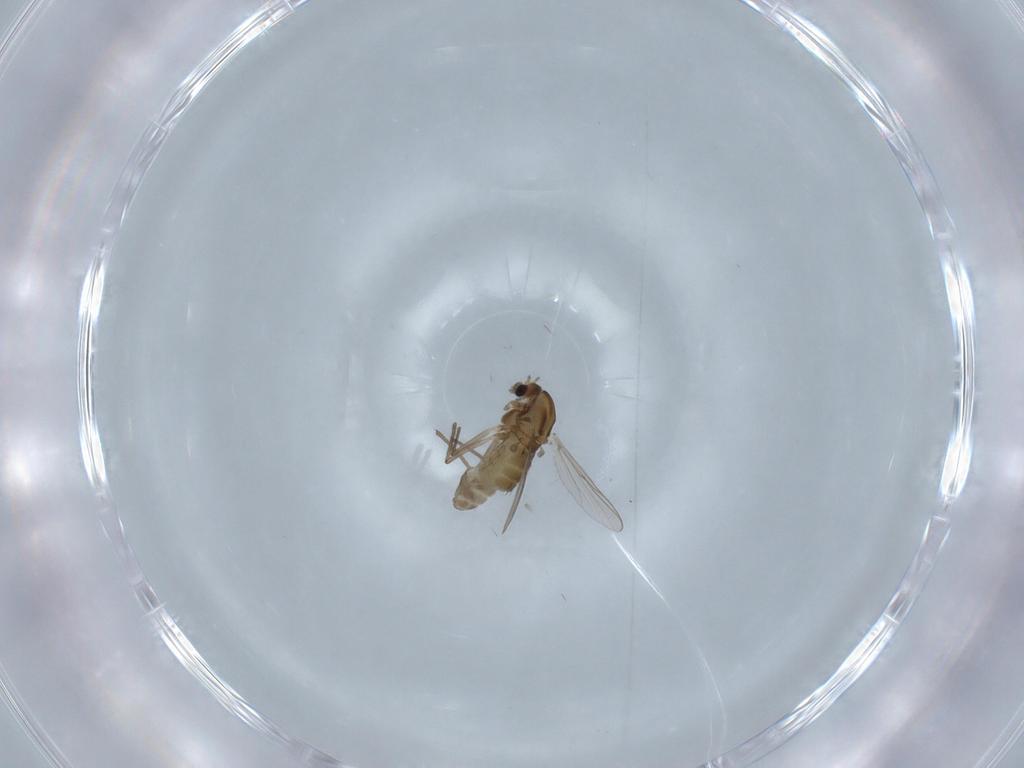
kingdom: Animalia
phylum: Arthropoda
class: Insecta
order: Diptera
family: Chironomidae
